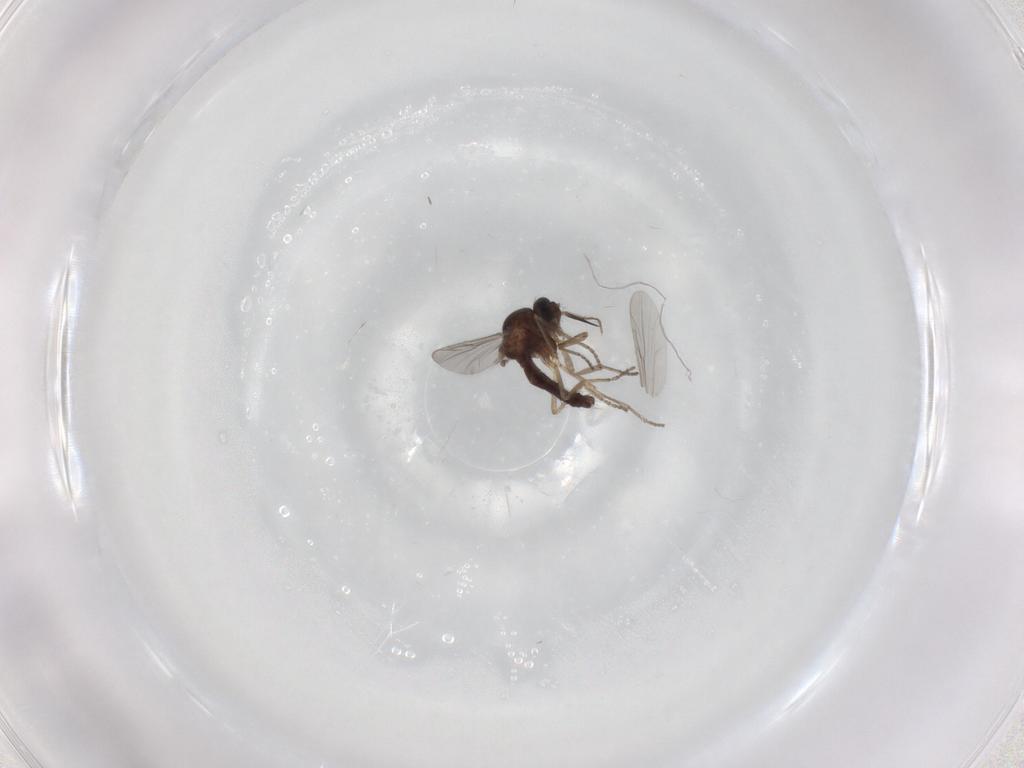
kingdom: Animalia
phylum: Arthropoda
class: Insecta
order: Diptera
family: Ceratopogonidae
